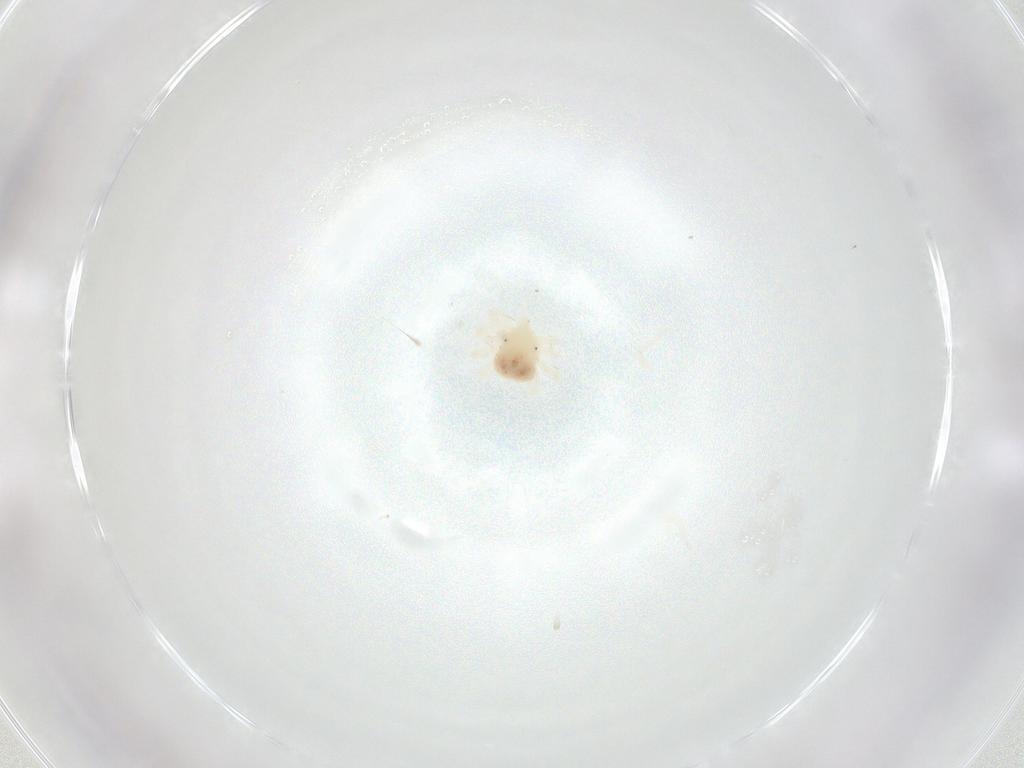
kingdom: Animalia
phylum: Arthropoda
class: Arachnida
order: Trombidiformes
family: Anystidae
